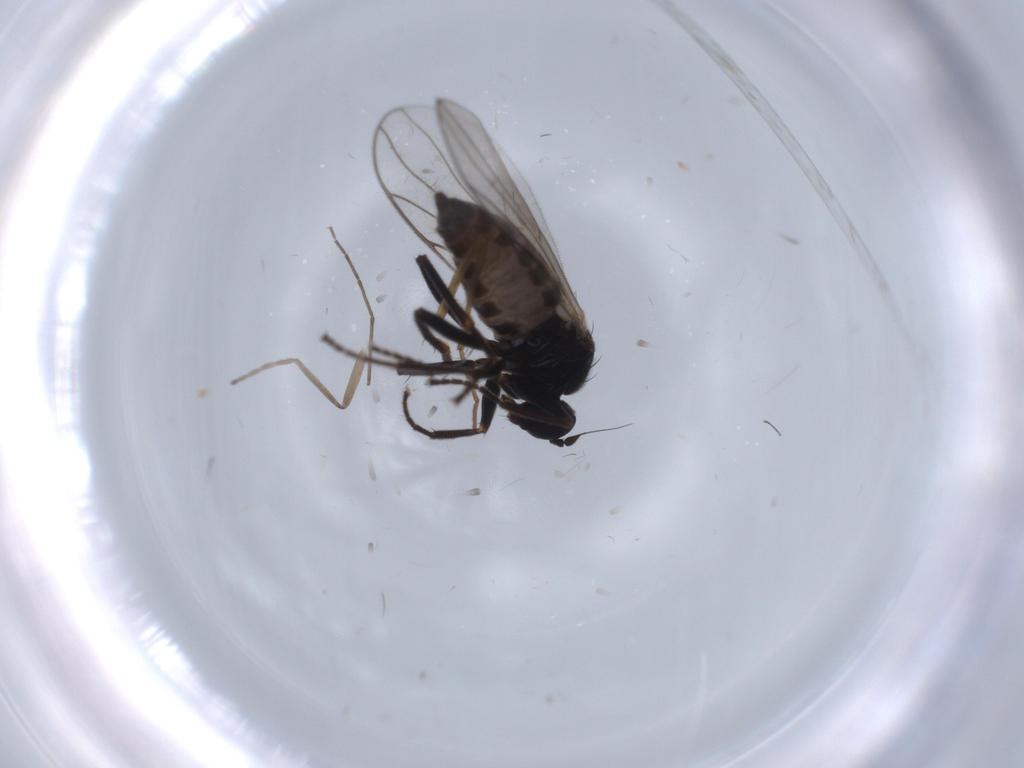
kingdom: Animalia
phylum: Arthropoda
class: Insecta
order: Diptera
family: Hybotidae
